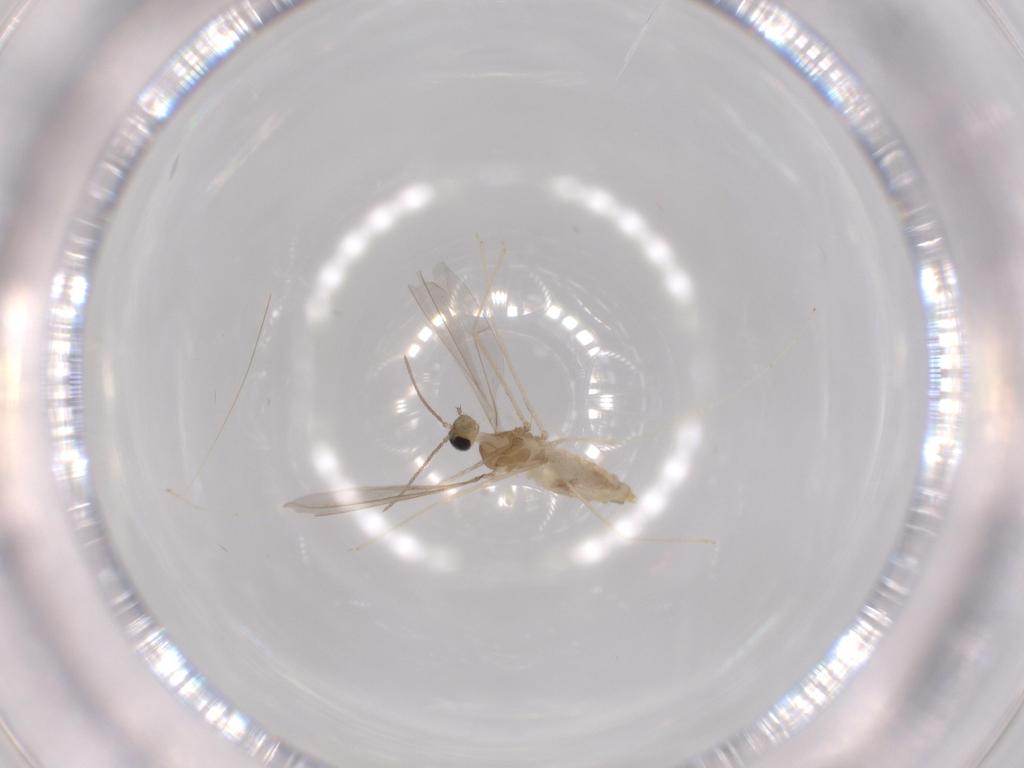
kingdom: Animalia
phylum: Arthropoda
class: Insecta
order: Diptera
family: Cecidomyiidae
